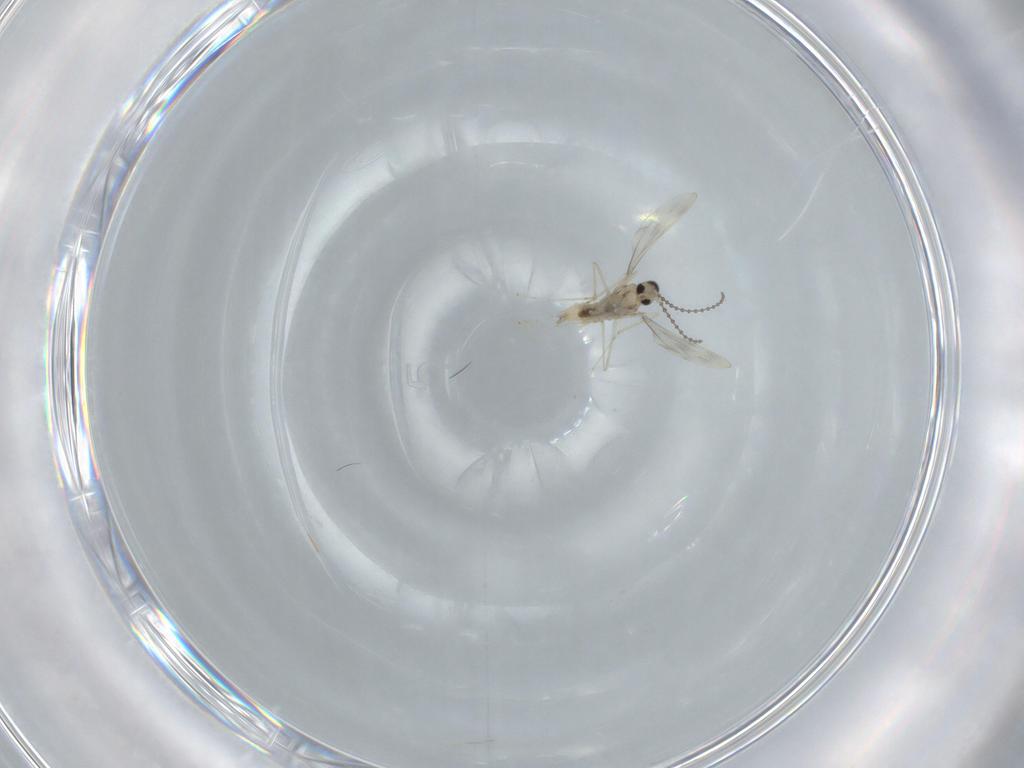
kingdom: Animalia
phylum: Arthropoda
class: Insecta
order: Diptera
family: Cecidomyiidae
